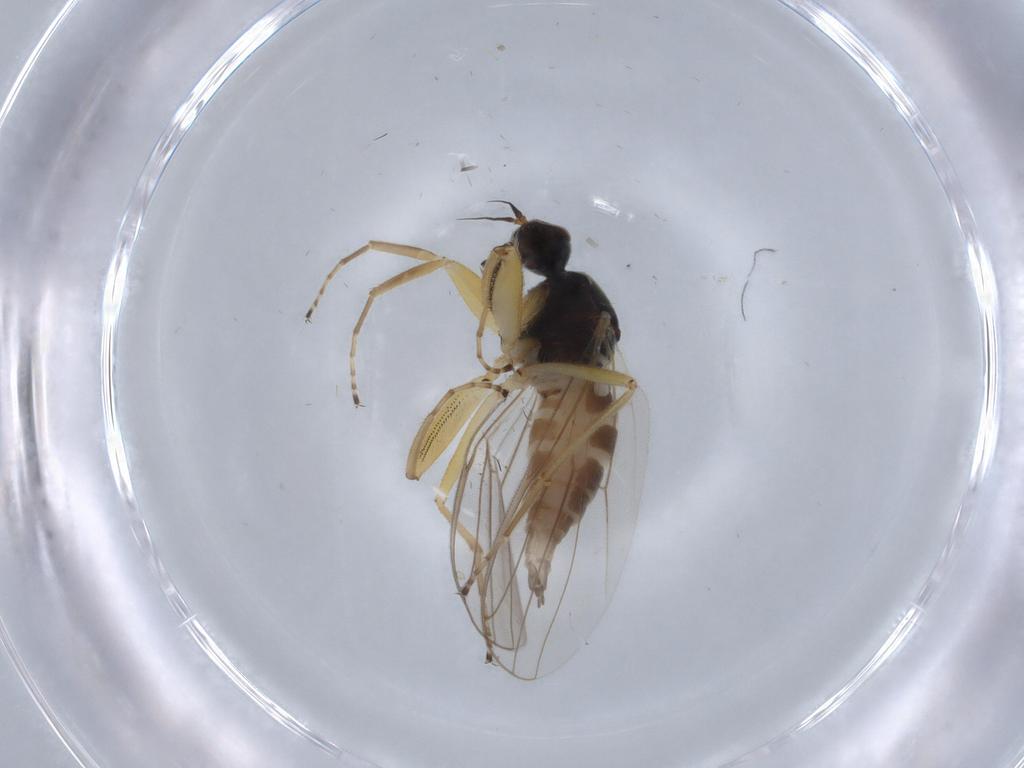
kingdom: Animalia
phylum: Arthropoda
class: Insecta
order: Diptera
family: Hybotidae
